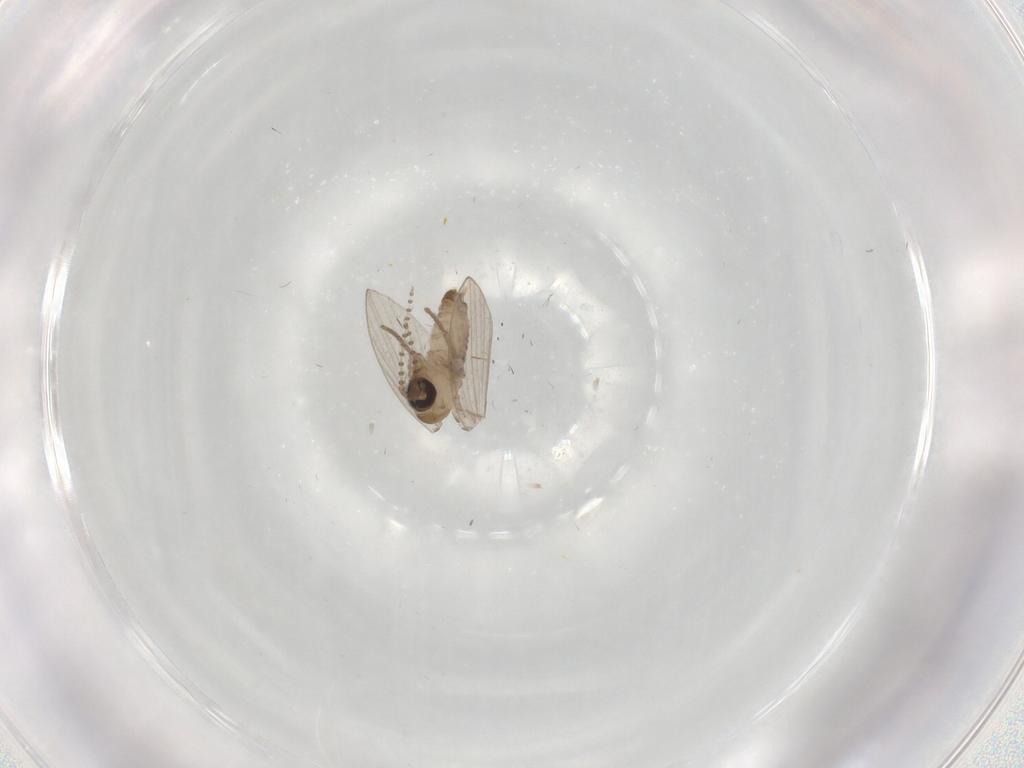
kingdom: Animalia
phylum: Arthropoda
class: Insecta
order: Diptera
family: Psychodidae
